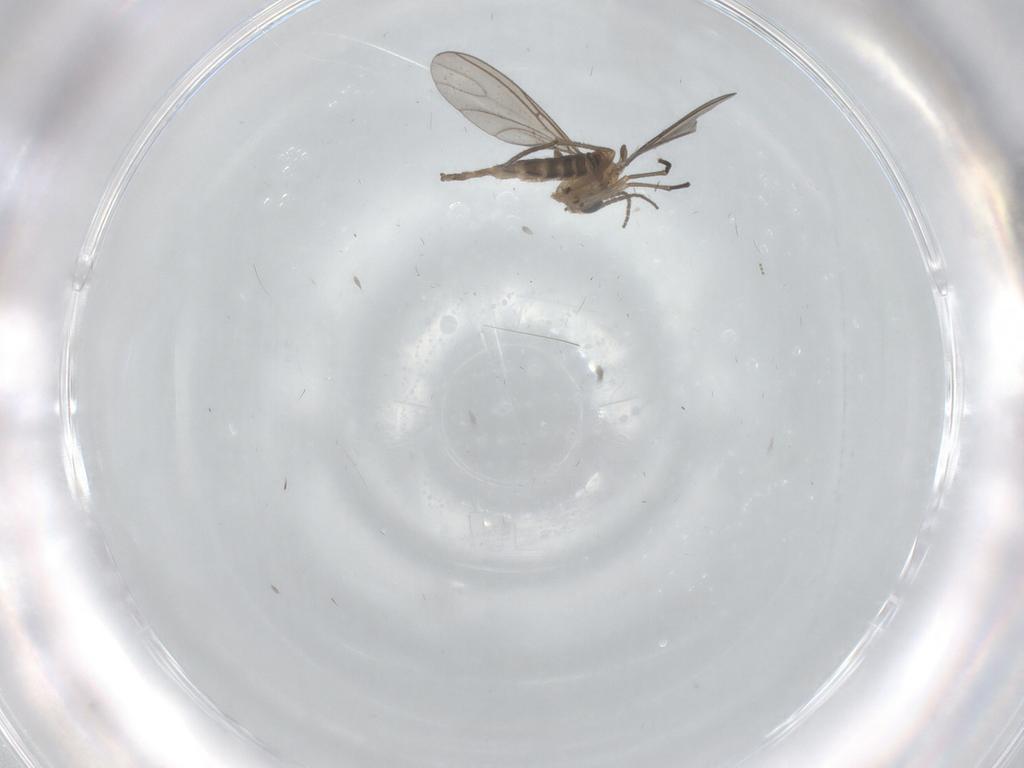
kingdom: Animalia
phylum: Arthropoda
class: Insecta
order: Diptera
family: Sciaridae
